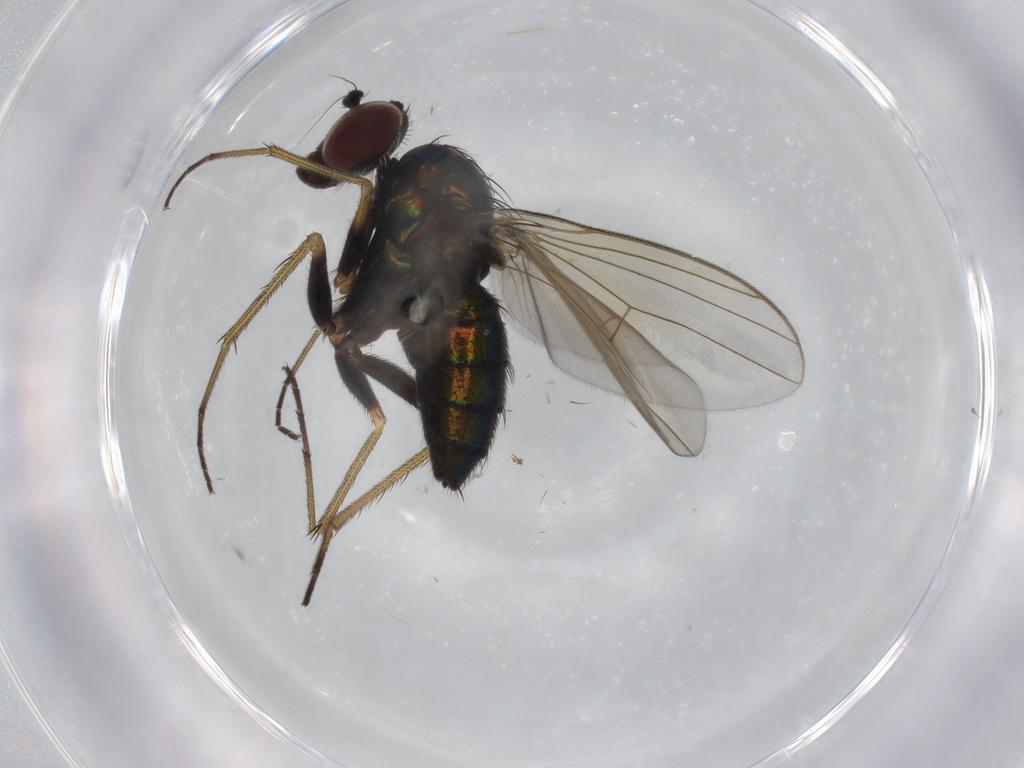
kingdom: Animalia
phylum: Arthropoda
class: Insecta
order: Diptera
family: Dolichopodidae
